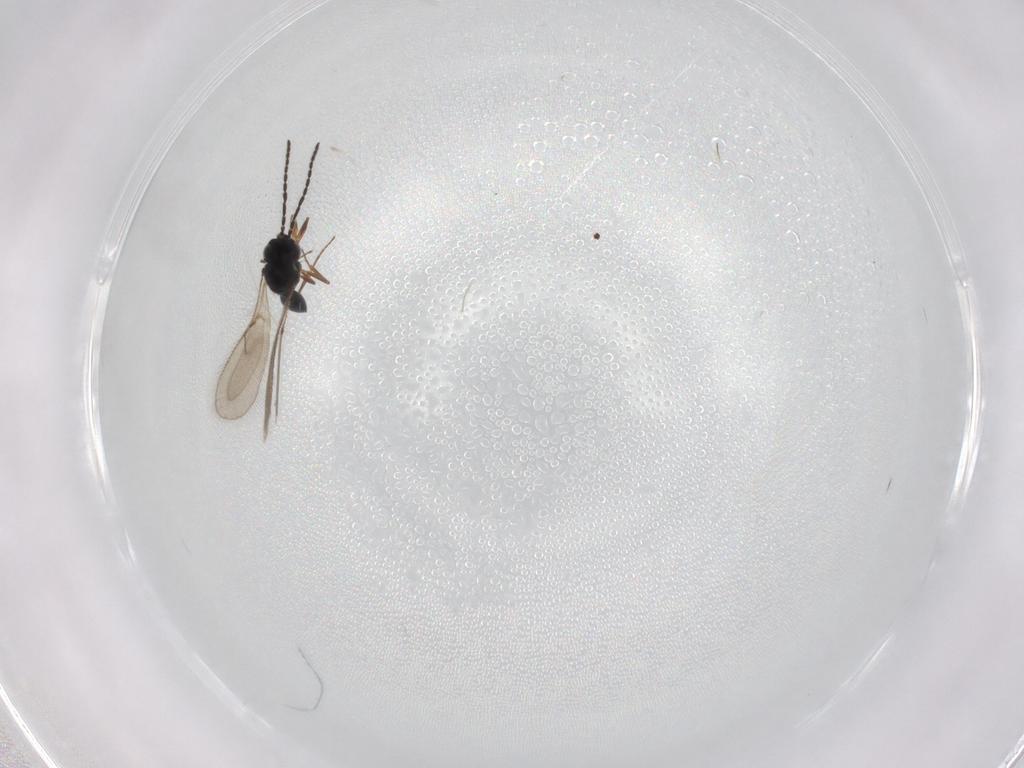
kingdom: Animalia
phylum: Arthropoda
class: Insecta
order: Hymenoptera
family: Scelionidae
